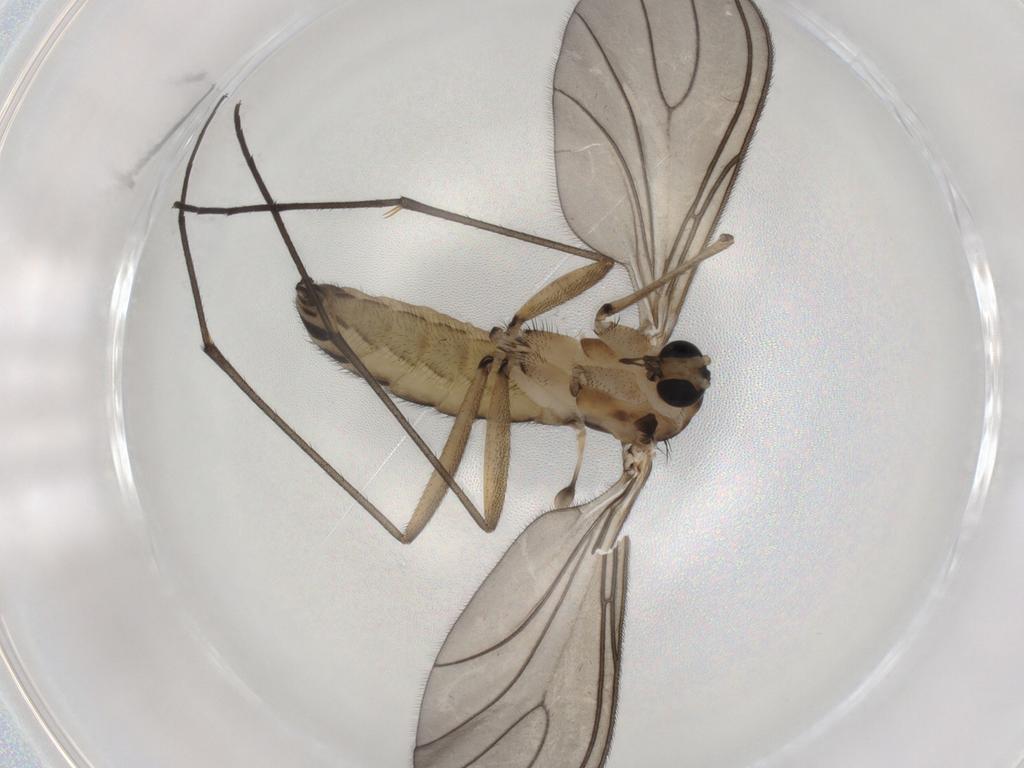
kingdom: Animalia
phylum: Arthropoda
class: Insecta
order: Diptera
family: Sciaridae
